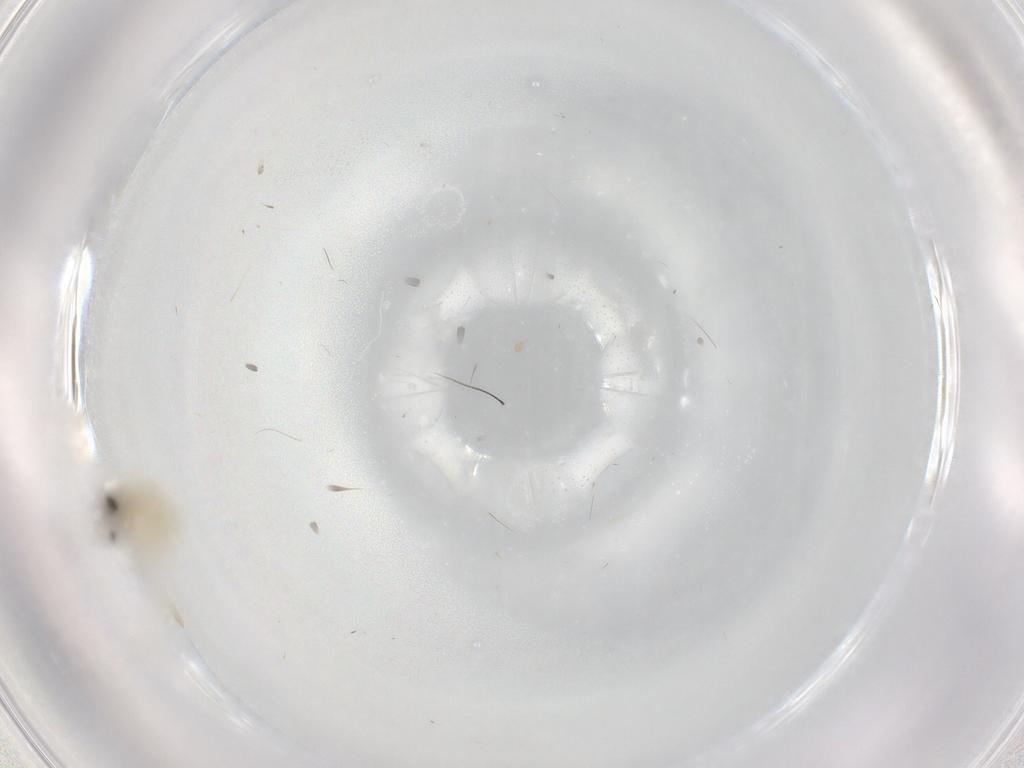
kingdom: Animalia
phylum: Arthropoda
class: Insecta
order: Diptera
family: Chironomidae
